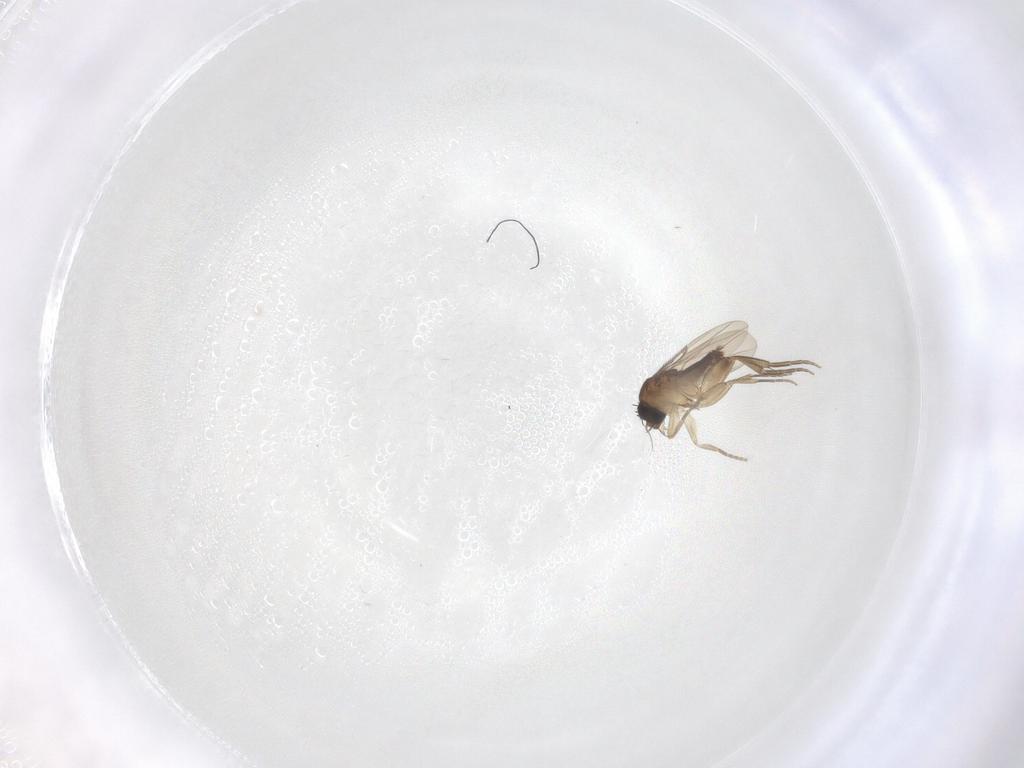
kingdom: Animalia
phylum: Arthropoda
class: Insecta
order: Diptera
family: Phoridae
